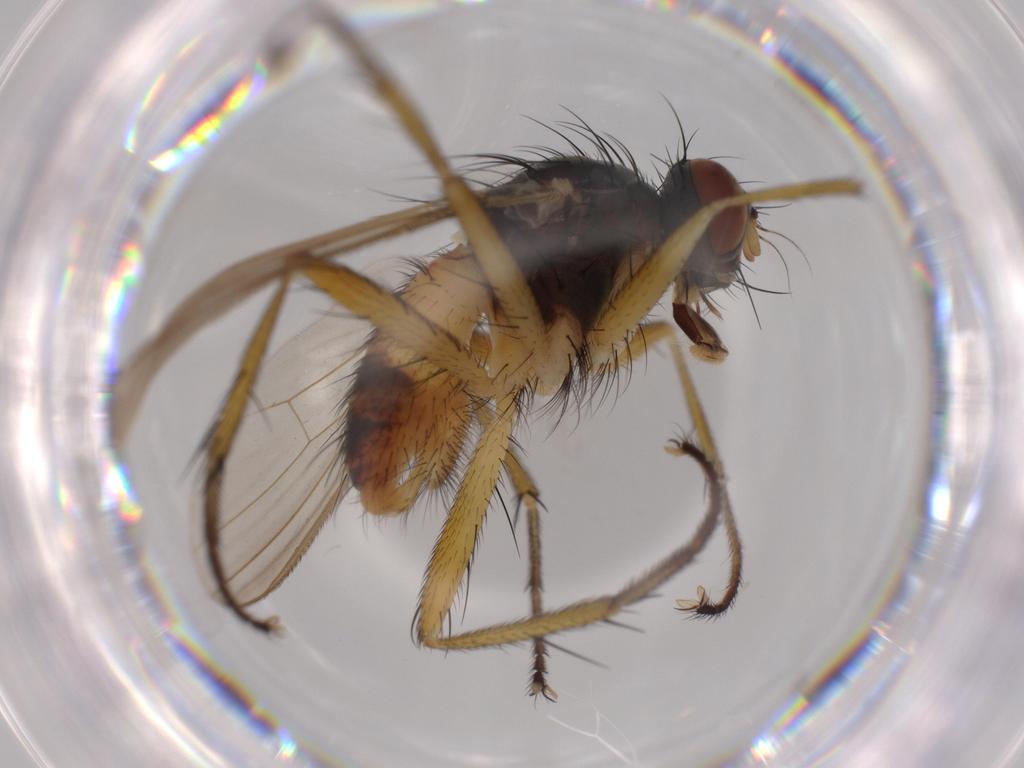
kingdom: Animalia
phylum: Arthropoda
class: Insecta
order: Diptera
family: Muscidae
